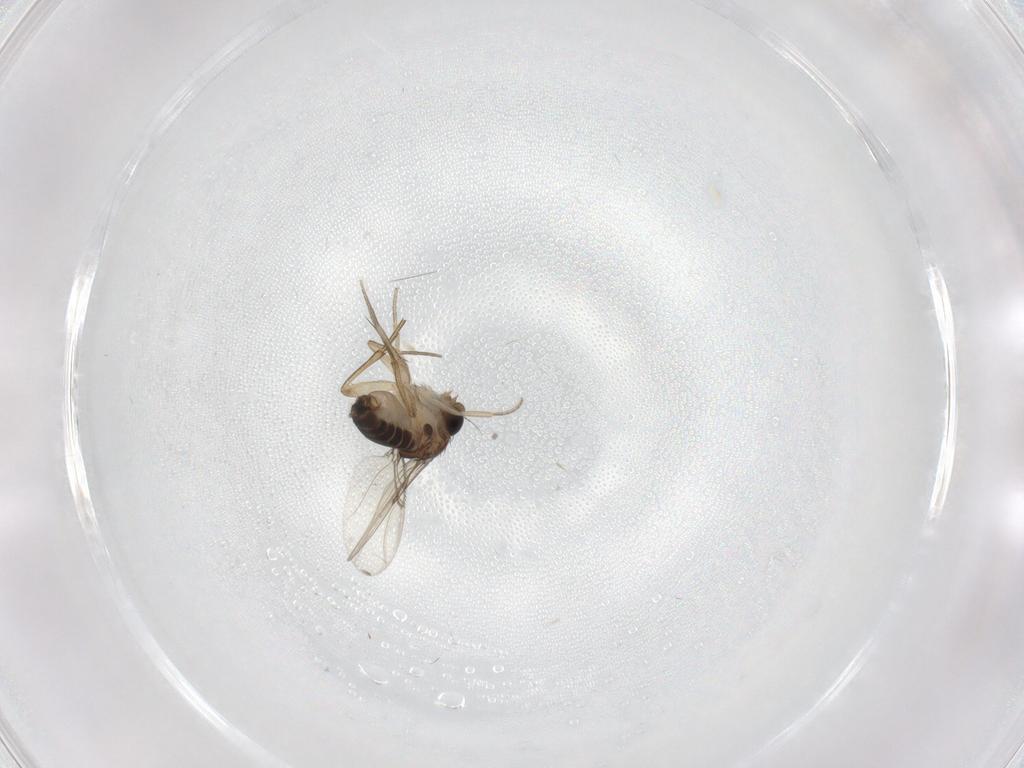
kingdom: Animalia
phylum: Arthropoda
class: Insecta
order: Diptera
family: Phoridae
